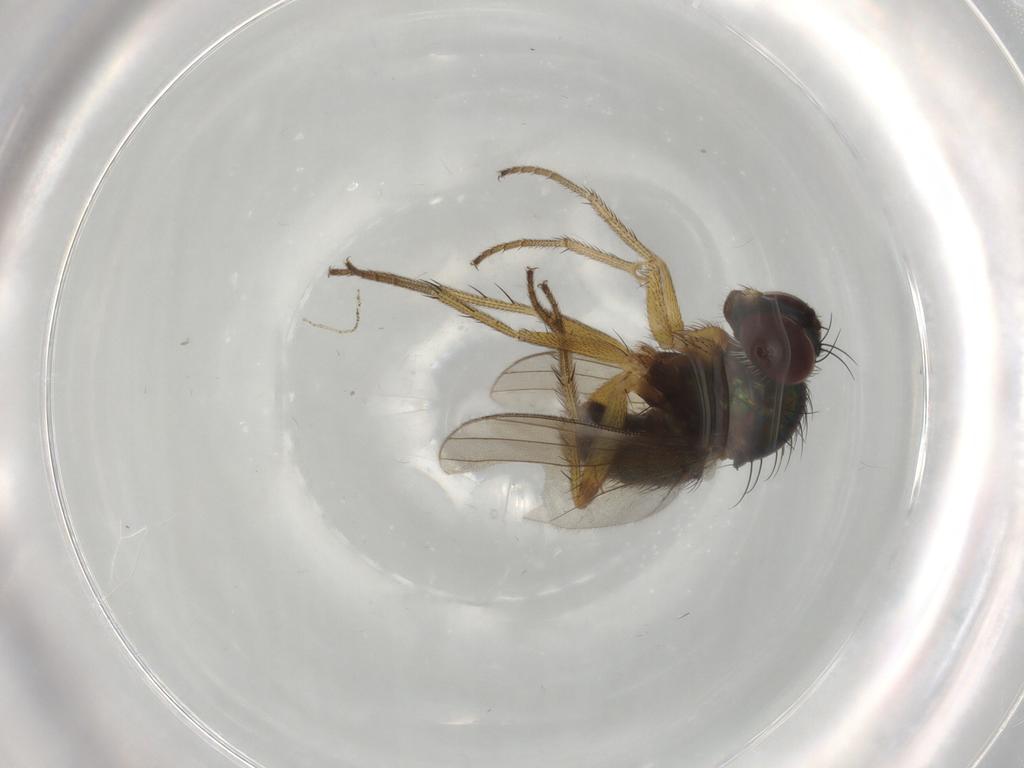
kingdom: Animalia
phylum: Arthropoda
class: Insecta
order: Diptera
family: Dolichopodidae
